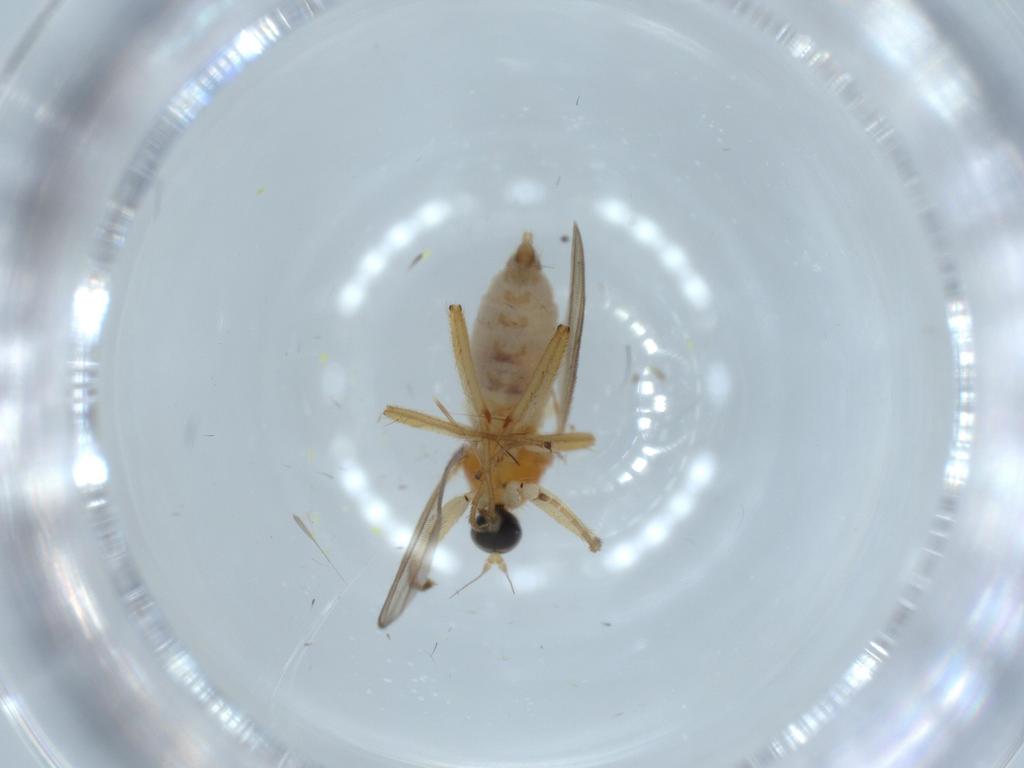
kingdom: Animalia
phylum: Arthropoda
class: Insecta
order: Diptera
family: Hybotidae
